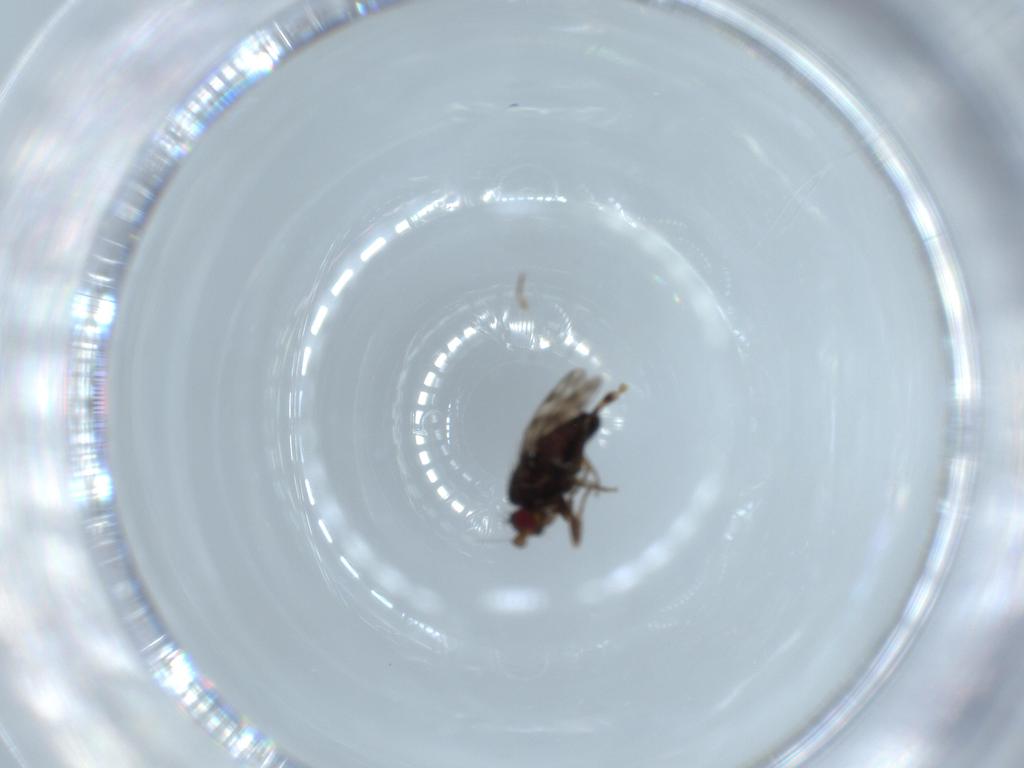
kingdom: Animalia
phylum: Arthropoda
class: Insecta
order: Diptera
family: Sphaeroceridae
